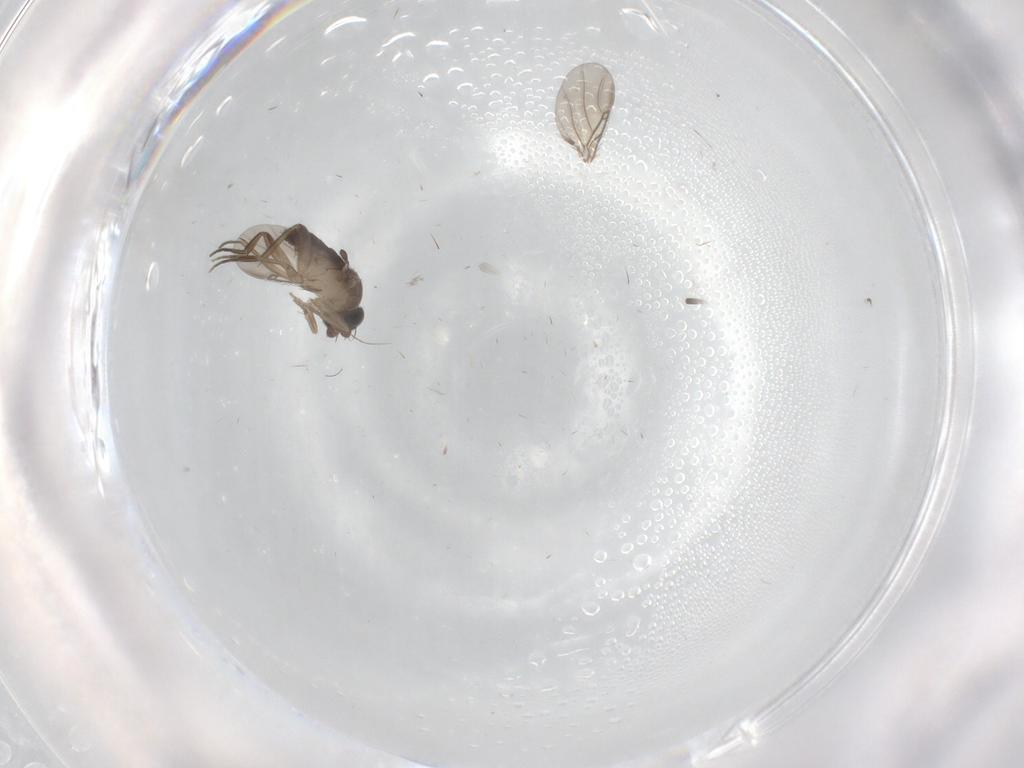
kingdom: Animalia
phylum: Arthropoda
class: Insecta
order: Diptera
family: Phoridae
